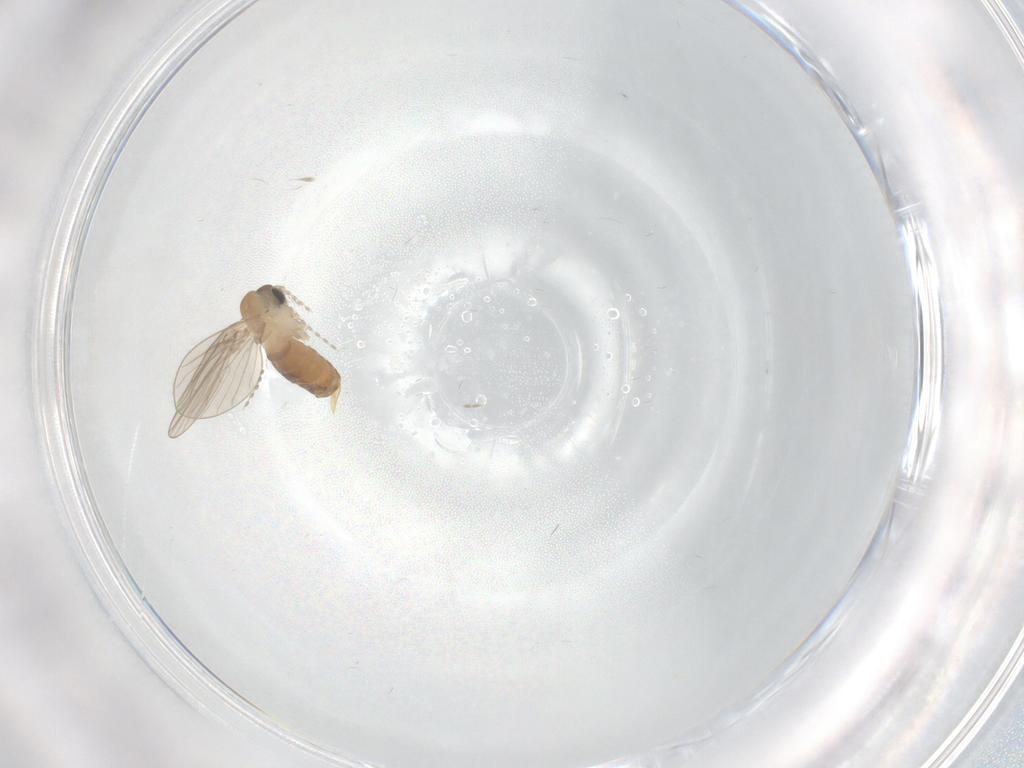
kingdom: Animalia
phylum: Arthropoda
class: Insecta
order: Diptera
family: Psychodidae
